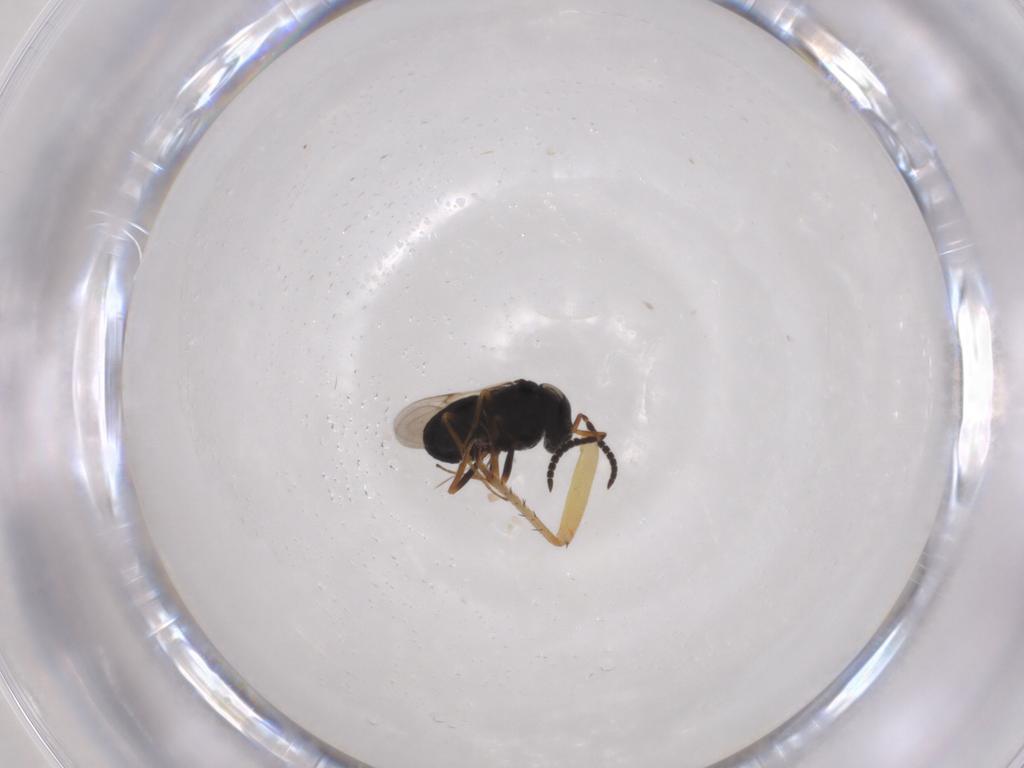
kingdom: Animalia
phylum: Arthropoda
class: Insecta
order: Hymenoptera
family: Scelionidae
